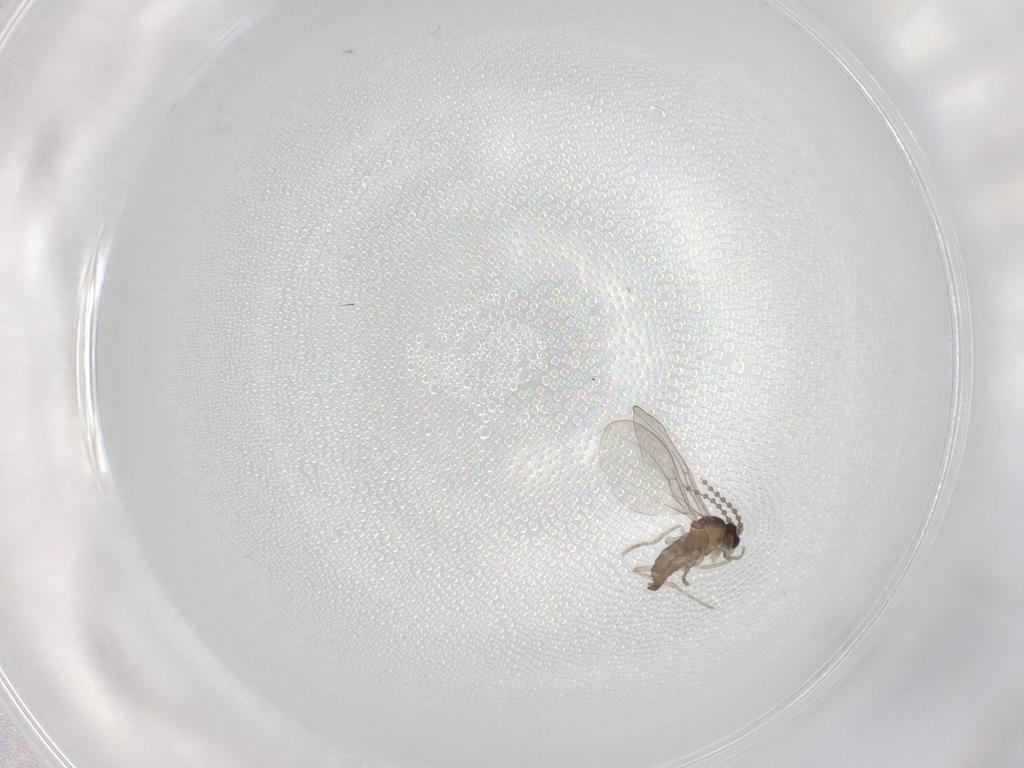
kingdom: Animalia
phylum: Arthropoda
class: Insecta
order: Diptera
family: Cecidomyiidae
